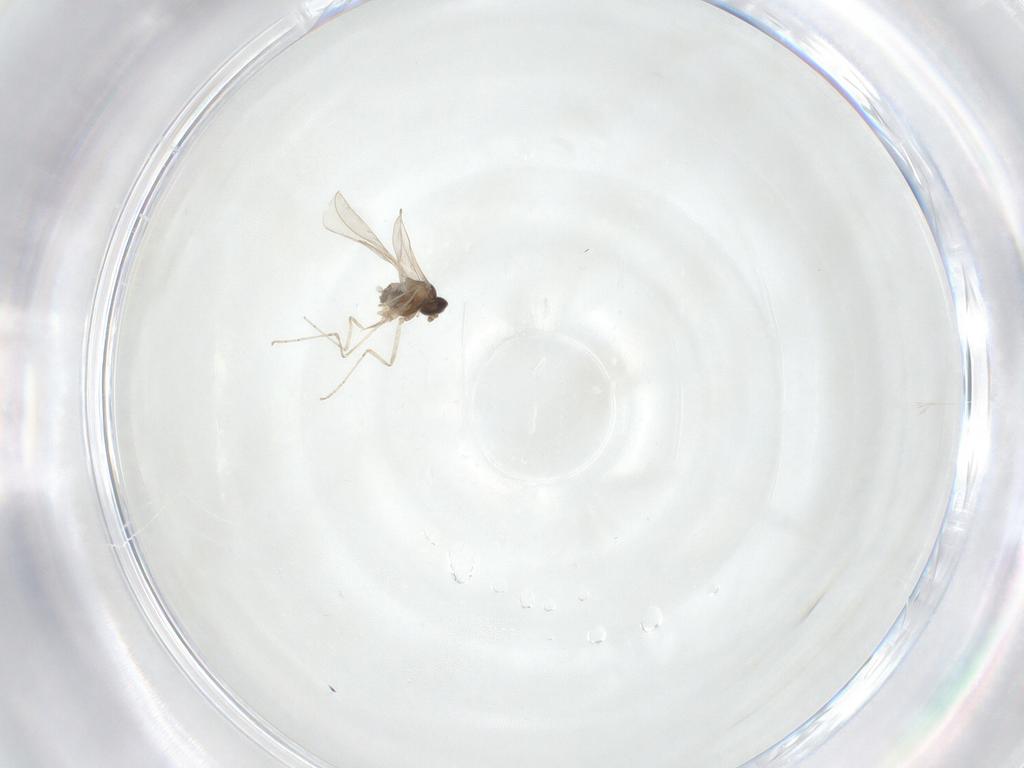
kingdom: Animalia
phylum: Arthropoda
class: Insecta
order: Diptera
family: Cecidomyiidae
